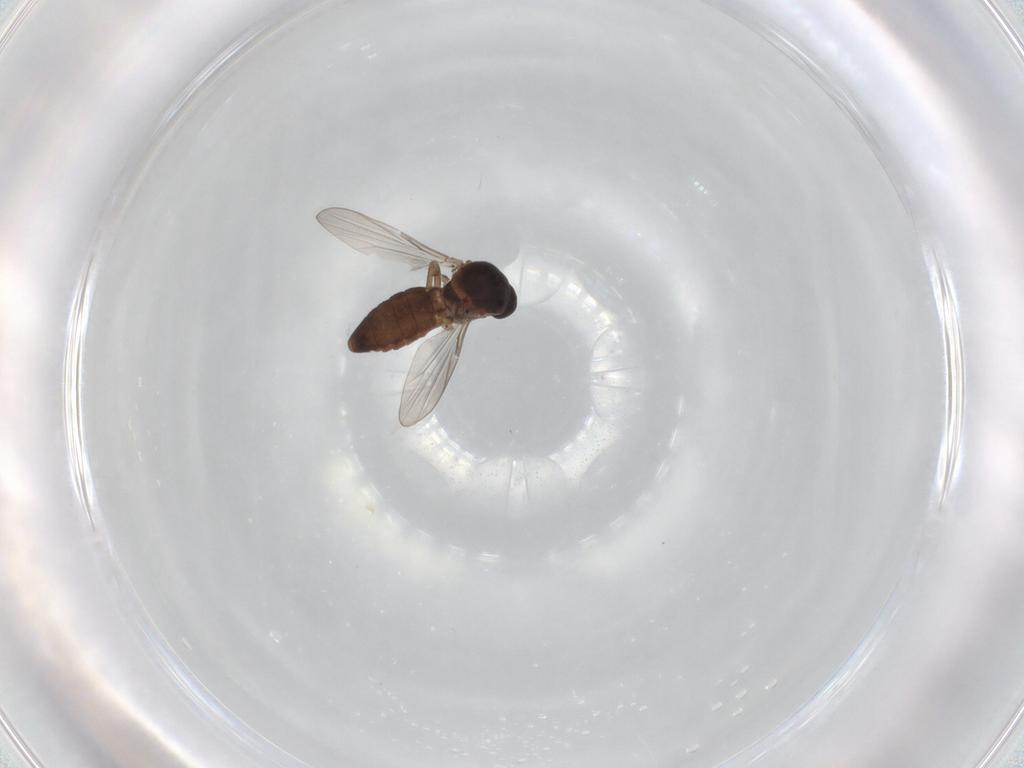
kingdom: Animalia
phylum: Arthropoda
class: Insecta
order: Diptera
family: Ceratopogonidae
